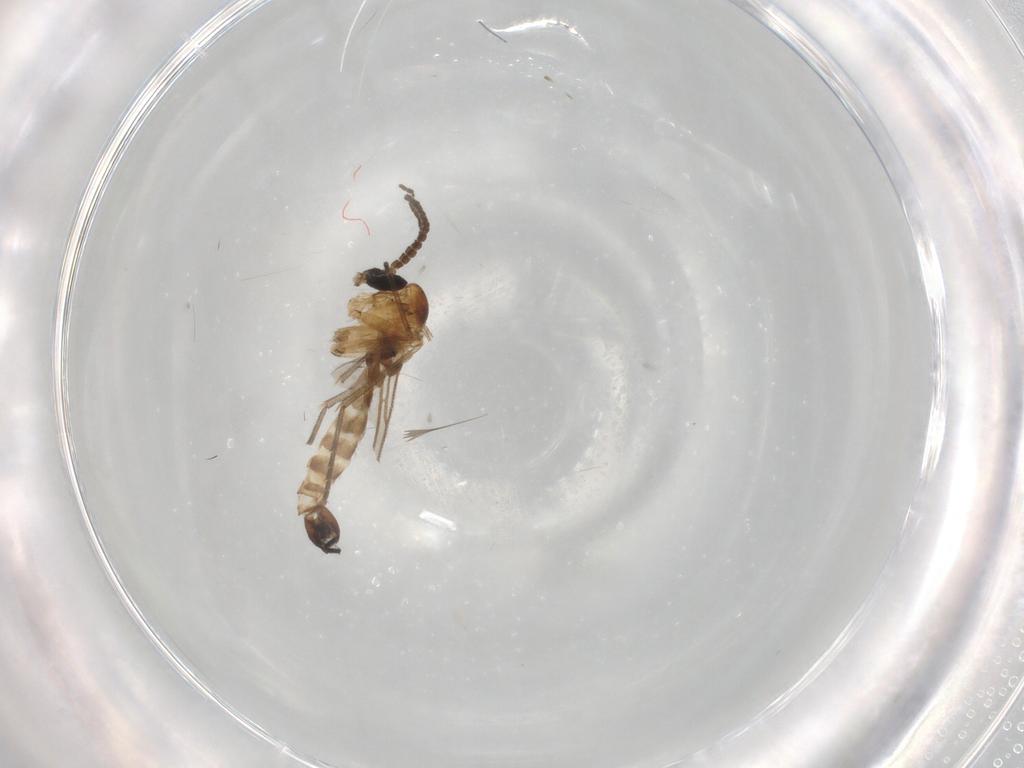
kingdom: Animalia
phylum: Arthropoda
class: Insecta
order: Diptera
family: Sciaridae
